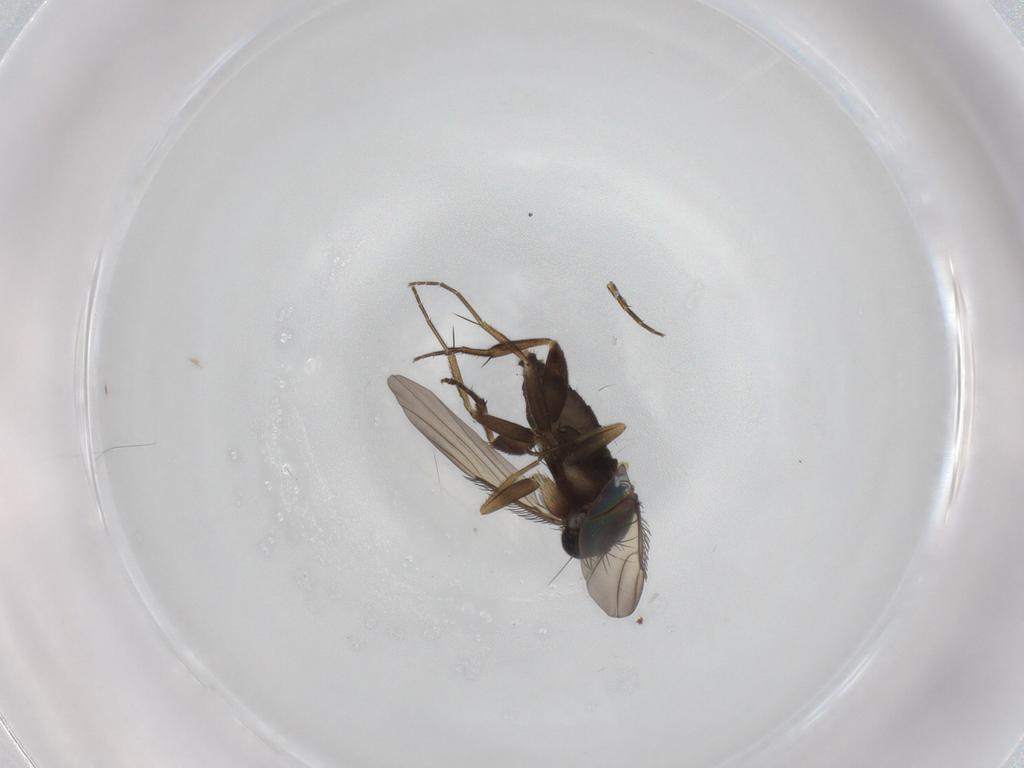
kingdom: Animalia
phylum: Arthropoda
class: Insecta
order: Diptera
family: Phoridae
